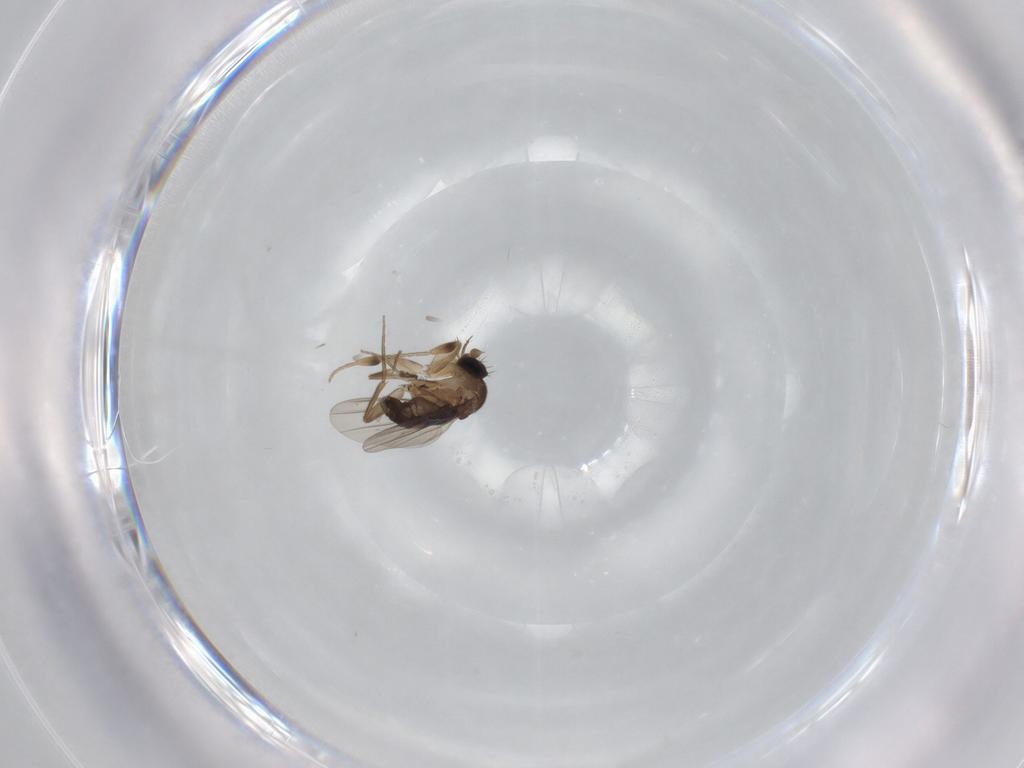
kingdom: Animalia
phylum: Arthropoda
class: Insecta
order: Diptera
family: Phoridae
